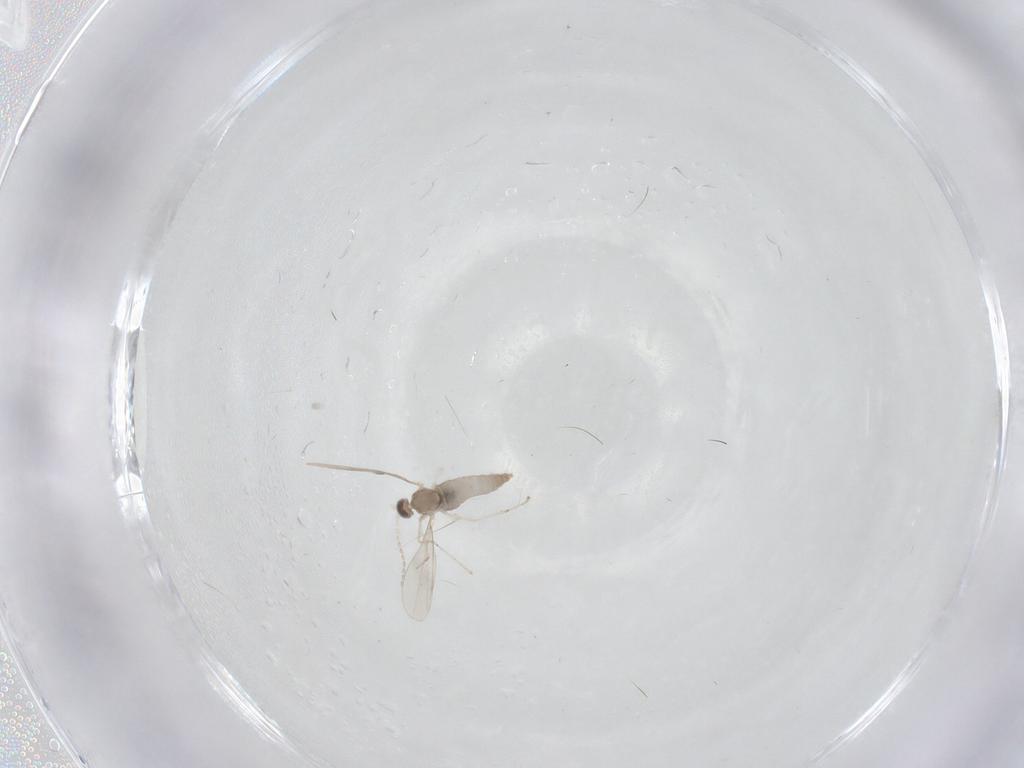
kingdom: Animalia
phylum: Arthropoda
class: Insecta
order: Diptera
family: Cecidomyiidae
